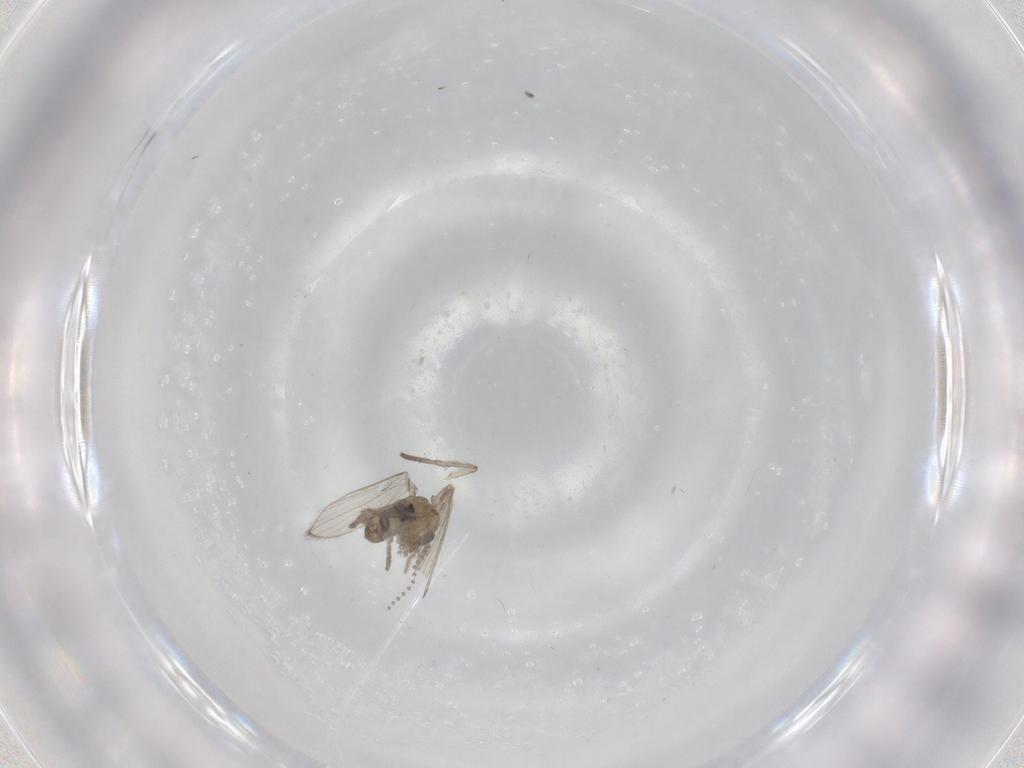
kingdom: Animalia
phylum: Arthropoda
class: Insecta
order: Diptera
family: Psychodidae
